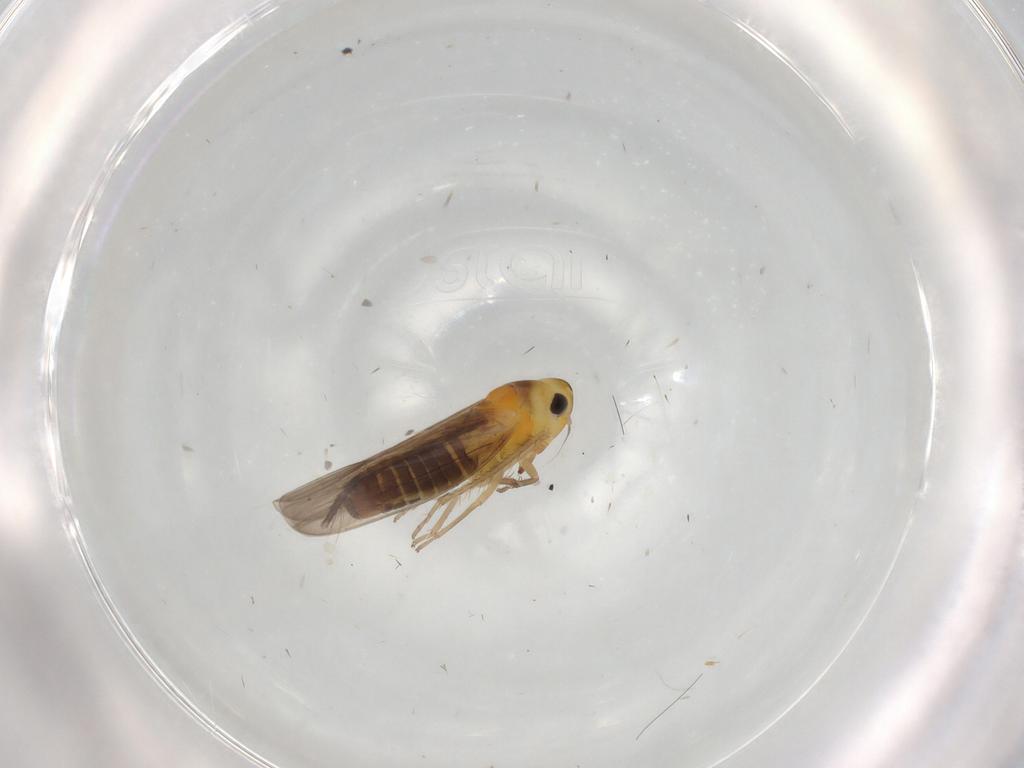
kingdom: Animalia
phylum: Arthropoda
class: Insecta
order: Hemiptera
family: Cicadellidae
